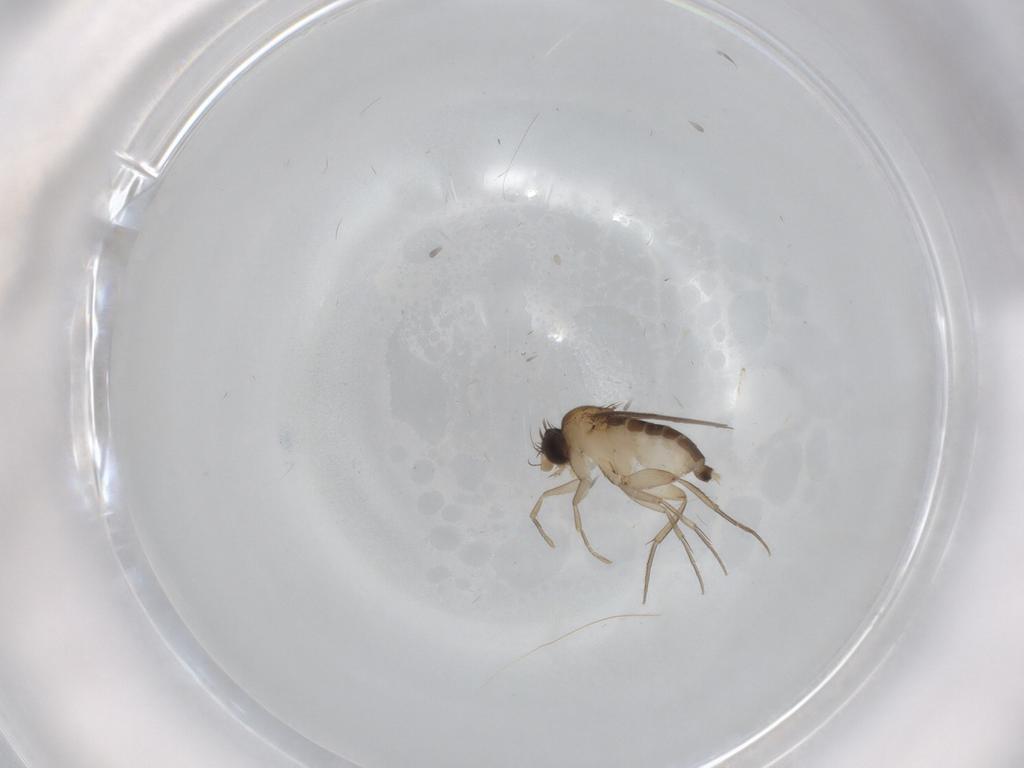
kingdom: Animalia
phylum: Arthropoda
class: Insecta
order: Diptera
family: Phoridae
